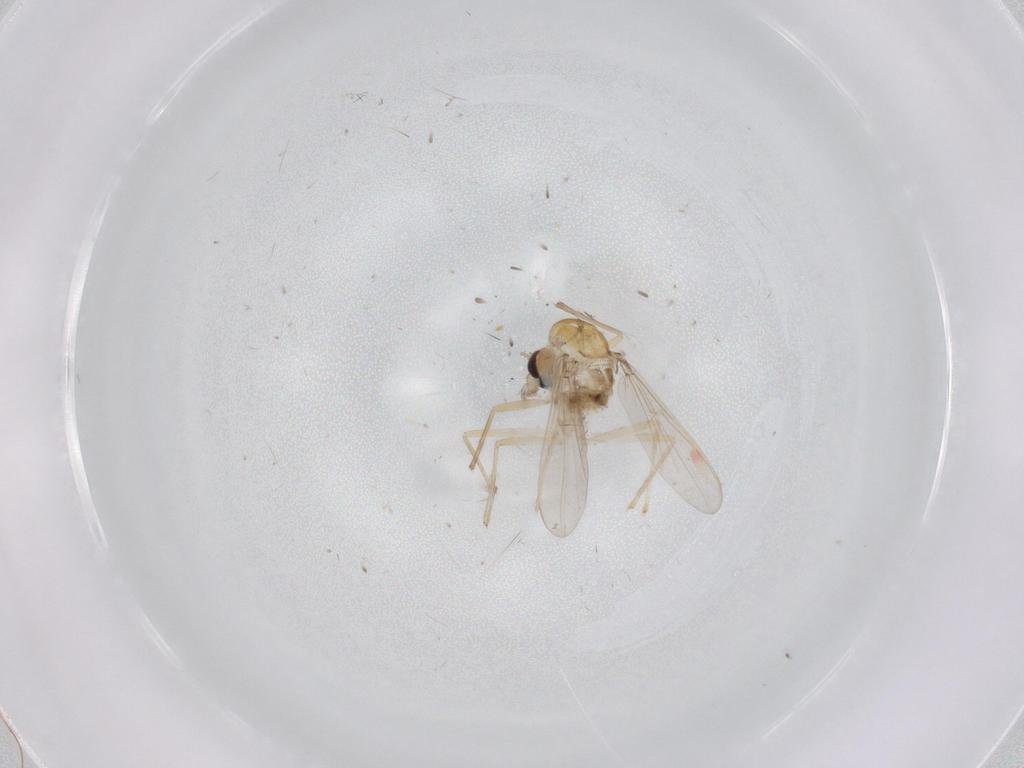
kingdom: Animalia
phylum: Arthropoda
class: Insecta
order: Diptera
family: Chironomidae
